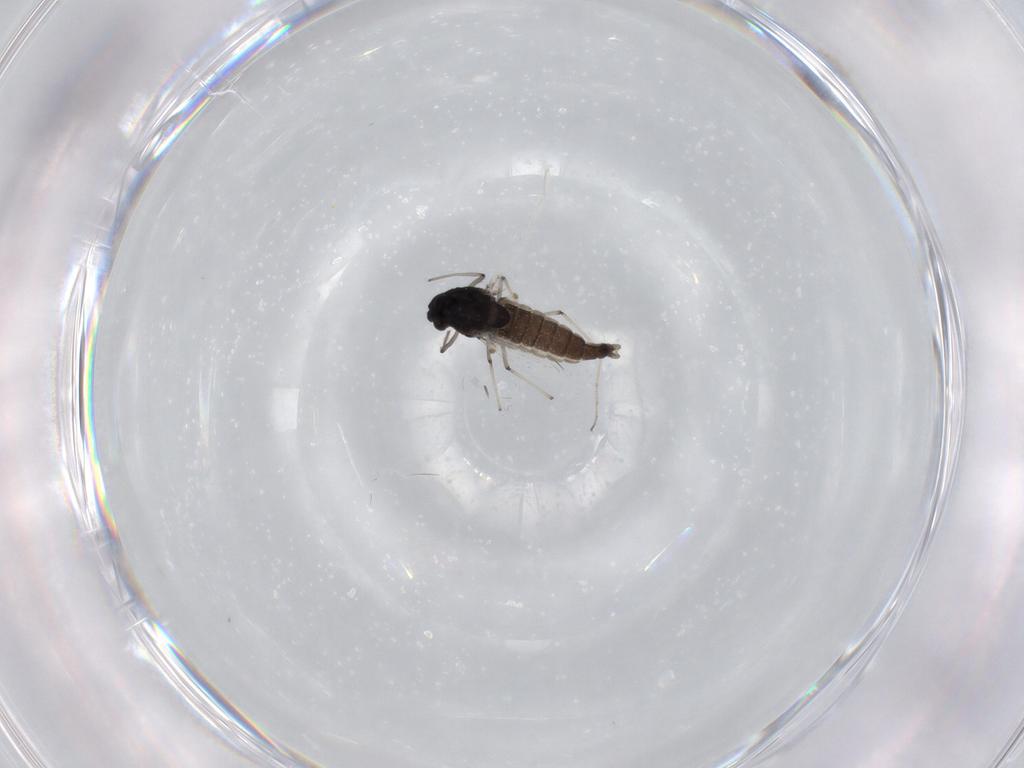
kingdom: Animalia
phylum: Arthropoda
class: Insecta
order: Diptera
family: Chironomidae
